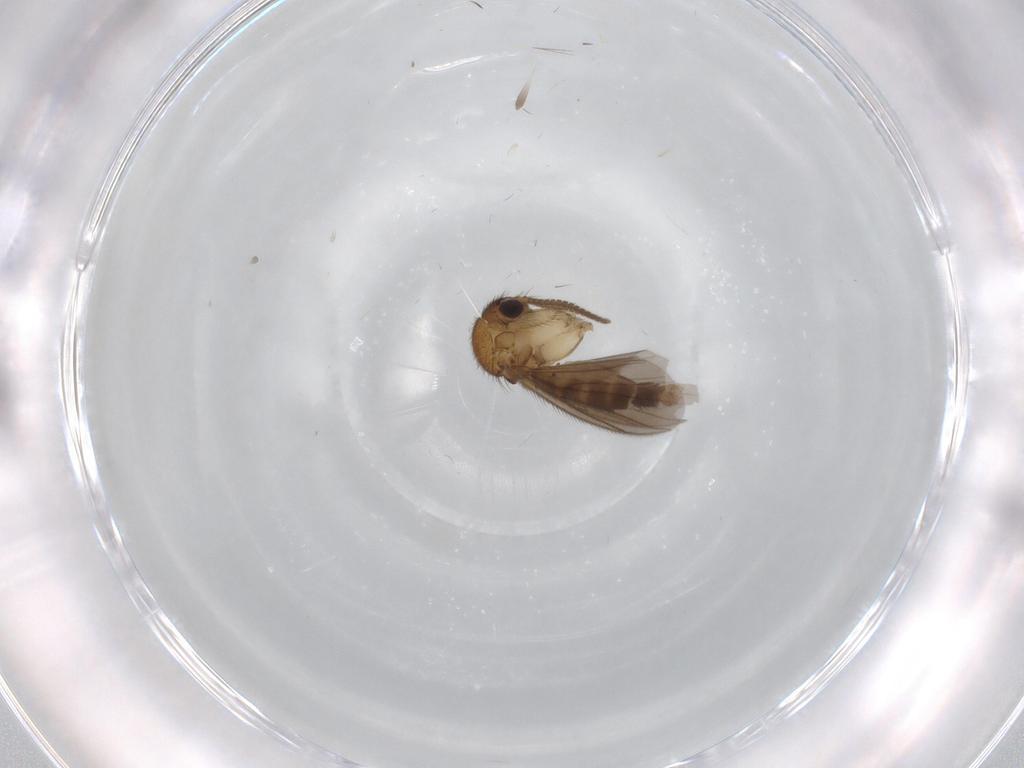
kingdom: Animalia
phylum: Arthropoda
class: Insecta
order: Diptera
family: Mycetophilidae
